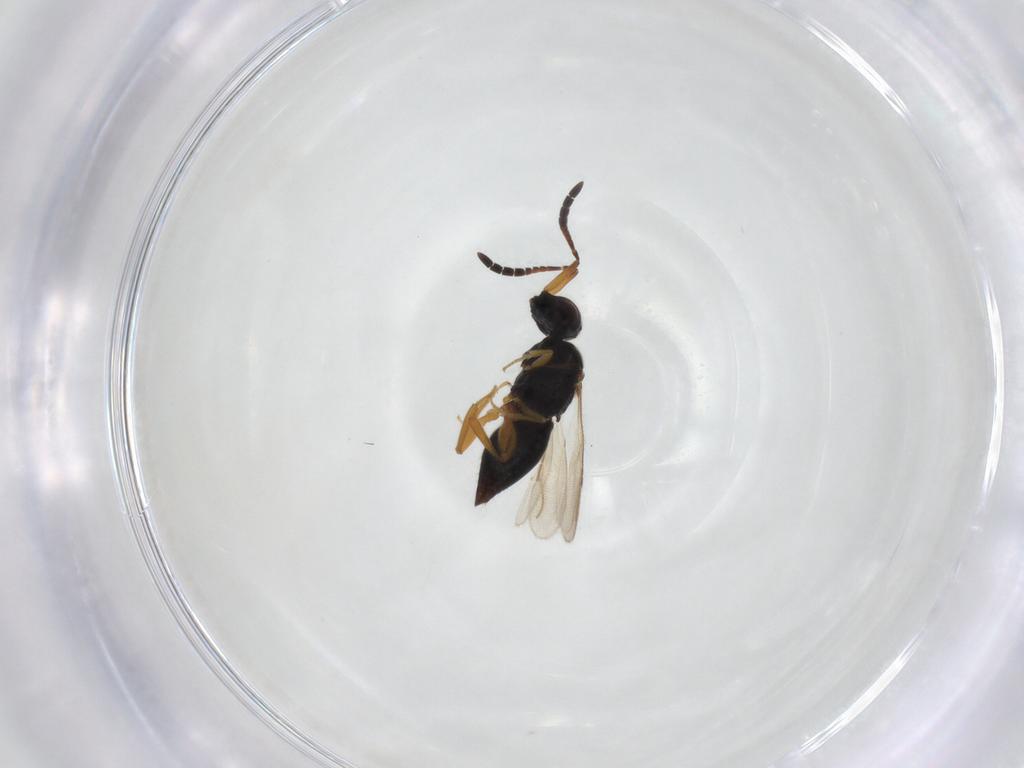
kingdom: Animalia
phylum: Arthropoda
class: Insecta
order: Hymenoptera
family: Ceraphronidae
